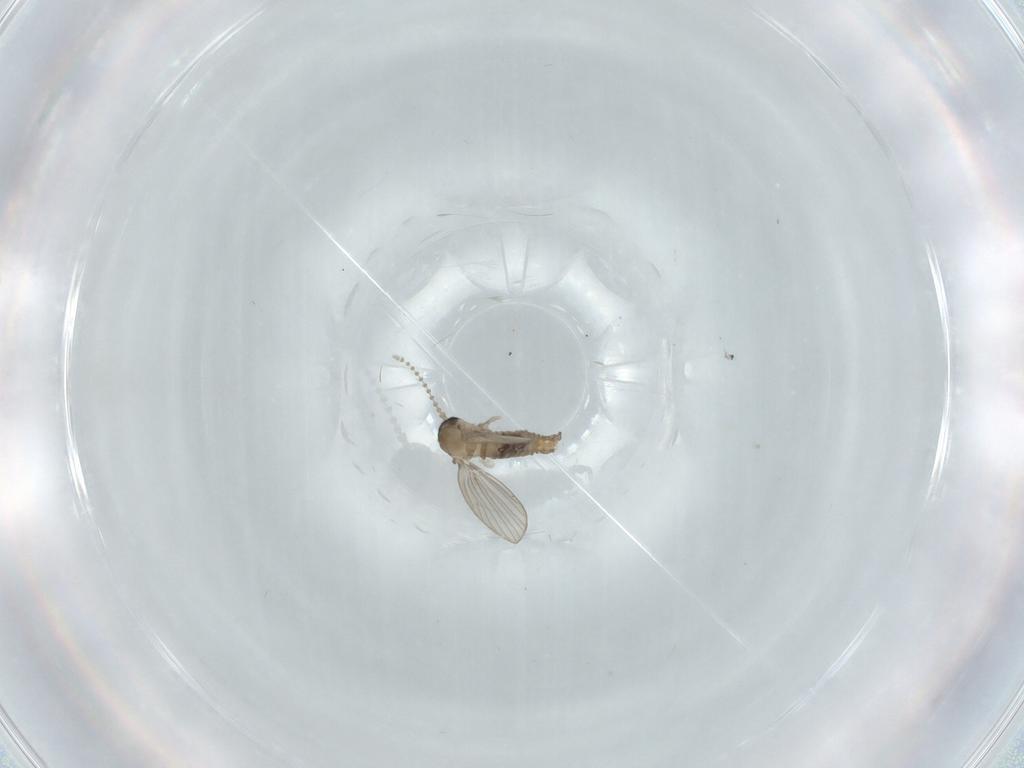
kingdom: Animalia
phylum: Arthropoda
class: Insecta
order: Diptera
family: Psychodidae
